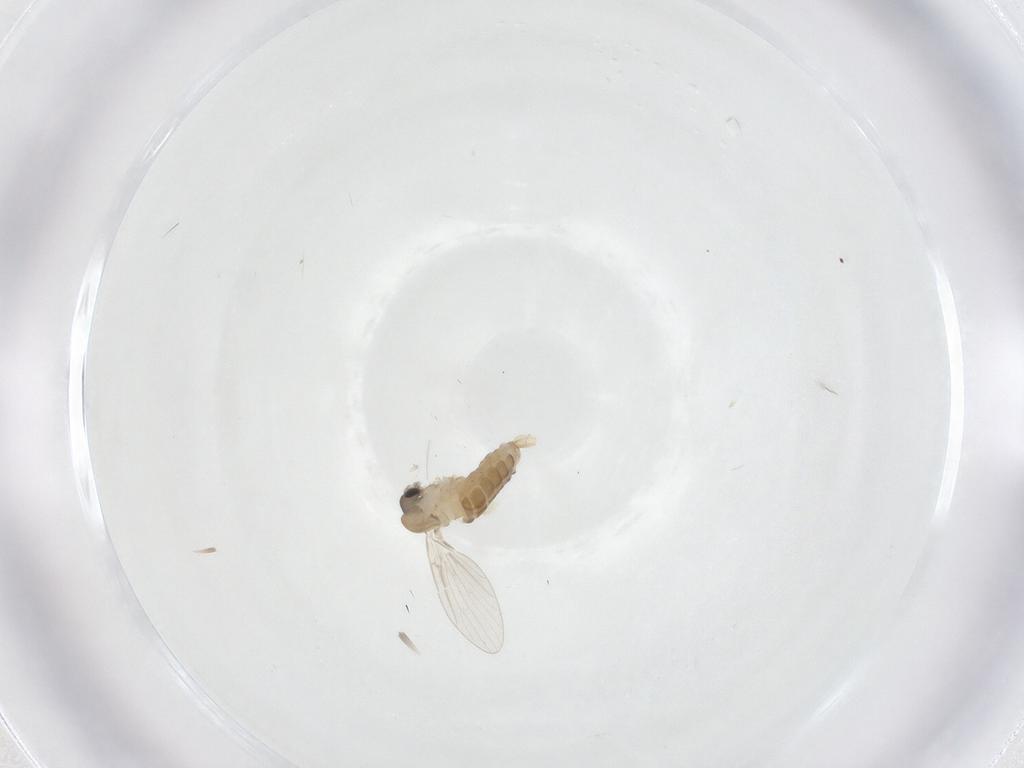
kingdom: Animalia
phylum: Arthropoda
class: Insecta
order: Diptera
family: Psychodidae
